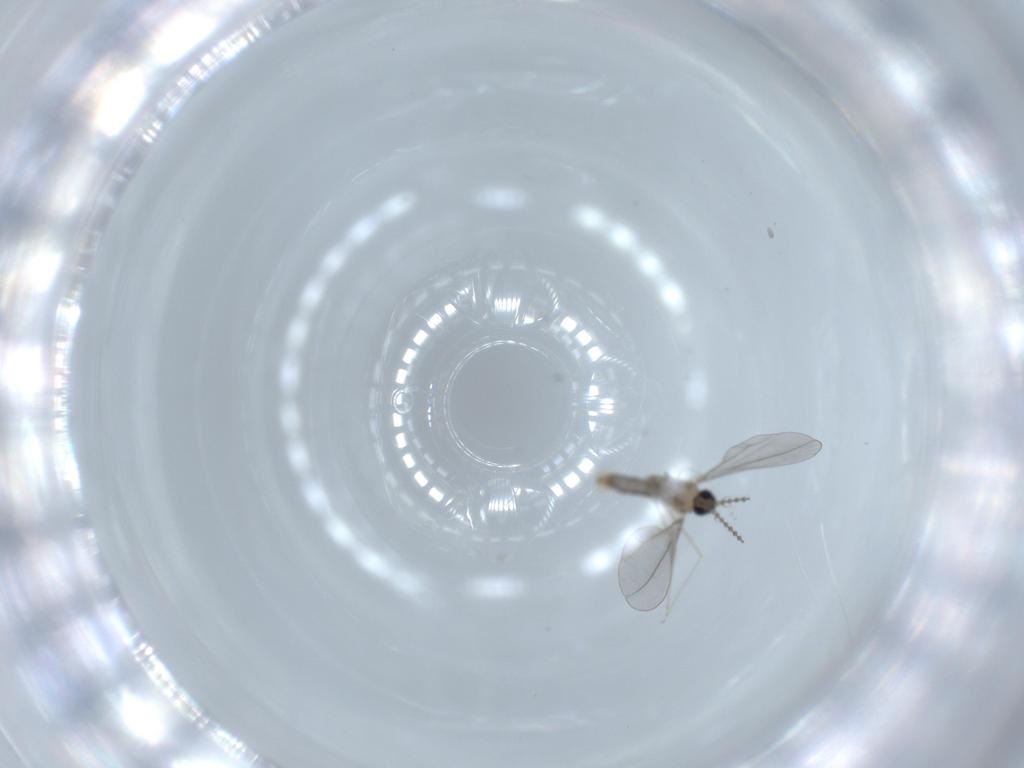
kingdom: Animalia
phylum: Arthropoda
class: Insecta
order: Diptera
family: Cecidomyiidae
